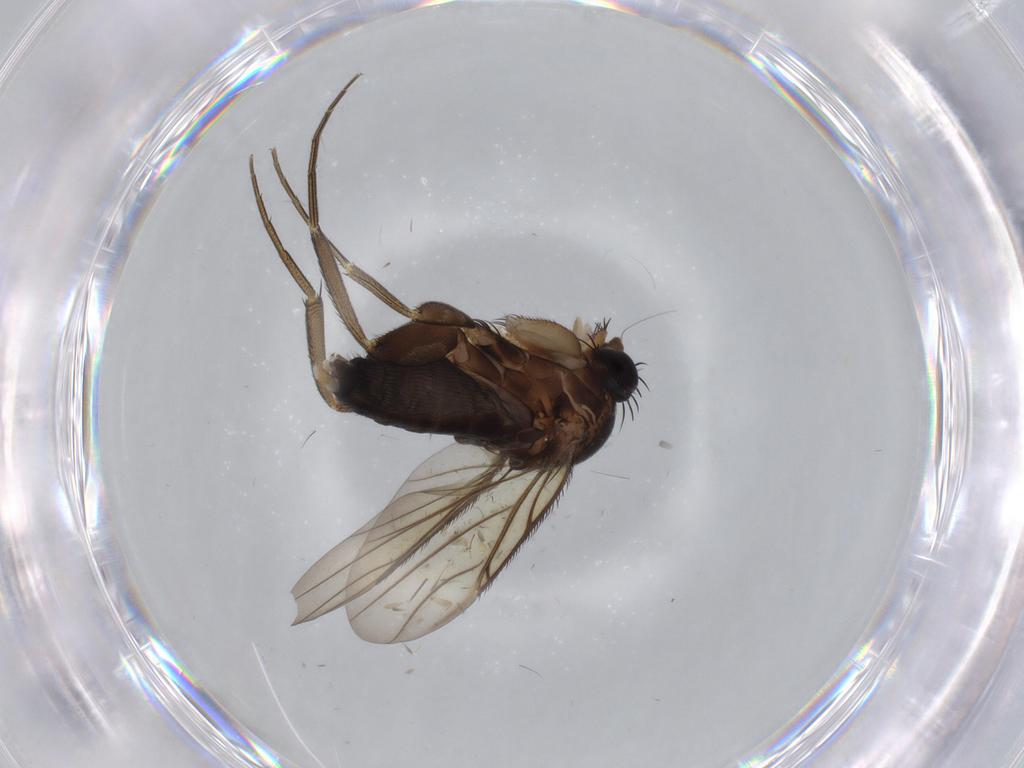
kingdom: Animalia
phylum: Arthropoda
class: Insecta
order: Diptera
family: Phoridae
